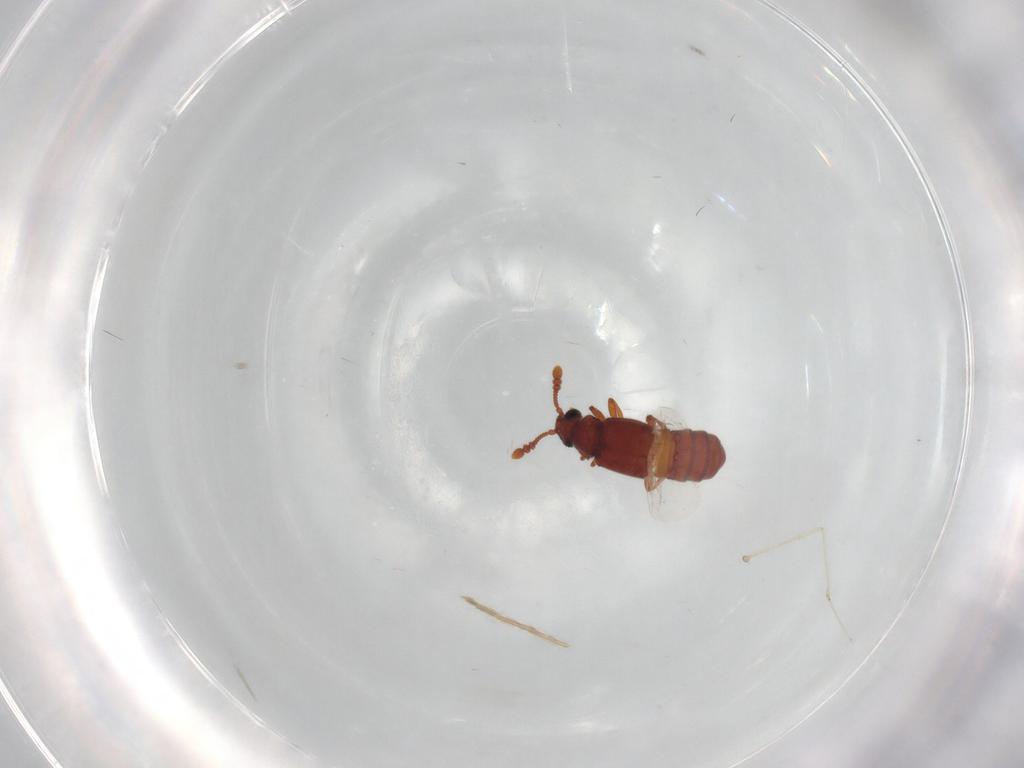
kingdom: Animalia
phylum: Arthropoda
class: Insecta
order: Coleoptera
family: Staphylinidae
